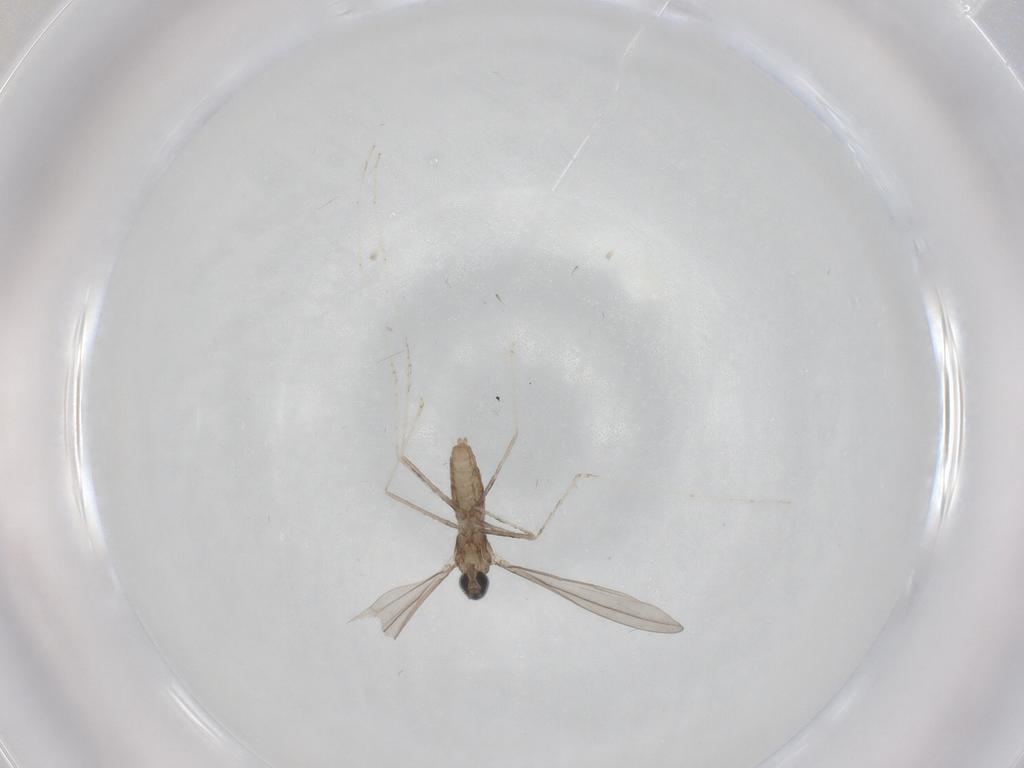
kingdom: Animalia
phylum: Arthropoda
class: Insecta
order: Diptera
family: Cecidomyiidae
